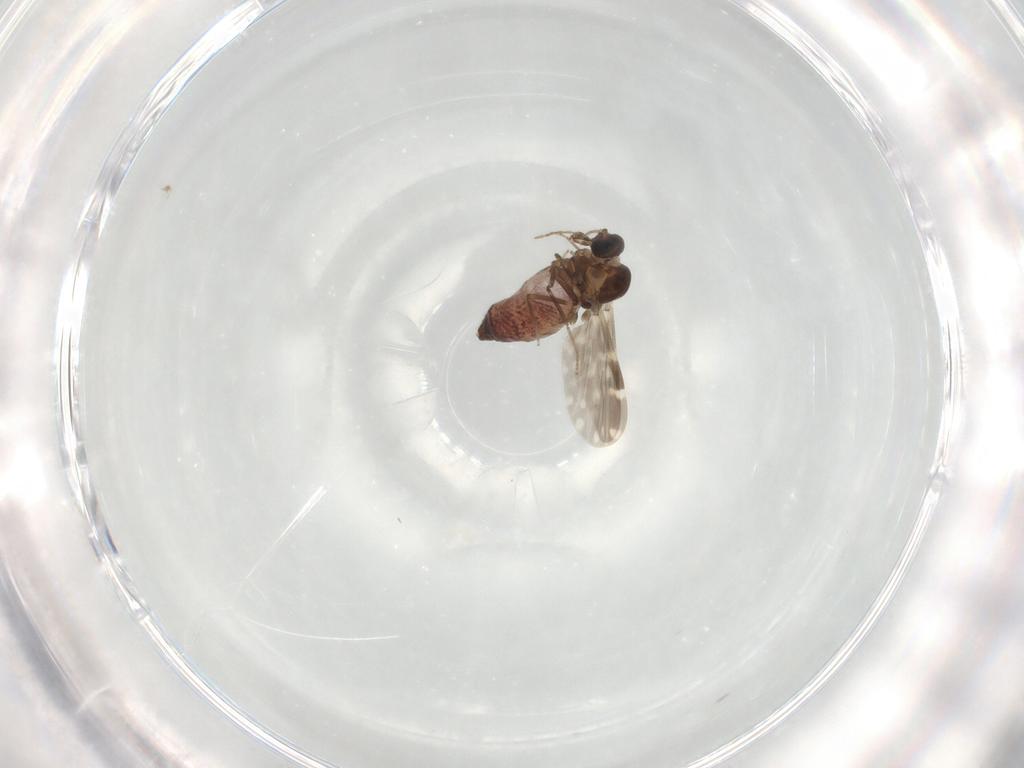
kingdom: Animalia
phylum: Arthropoda
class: Insecta
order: Diptera
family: Ceratopogonidae
